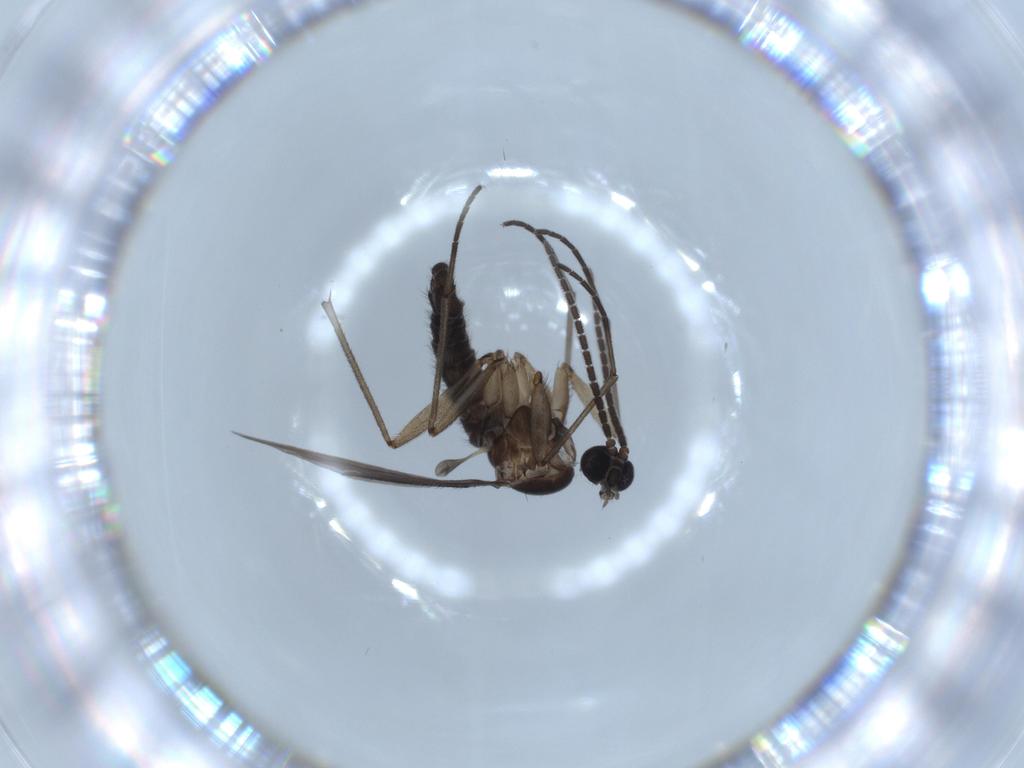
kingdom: Animalia
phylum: Arthropoda
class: Insecta
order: Diptera
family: Sciaridae
